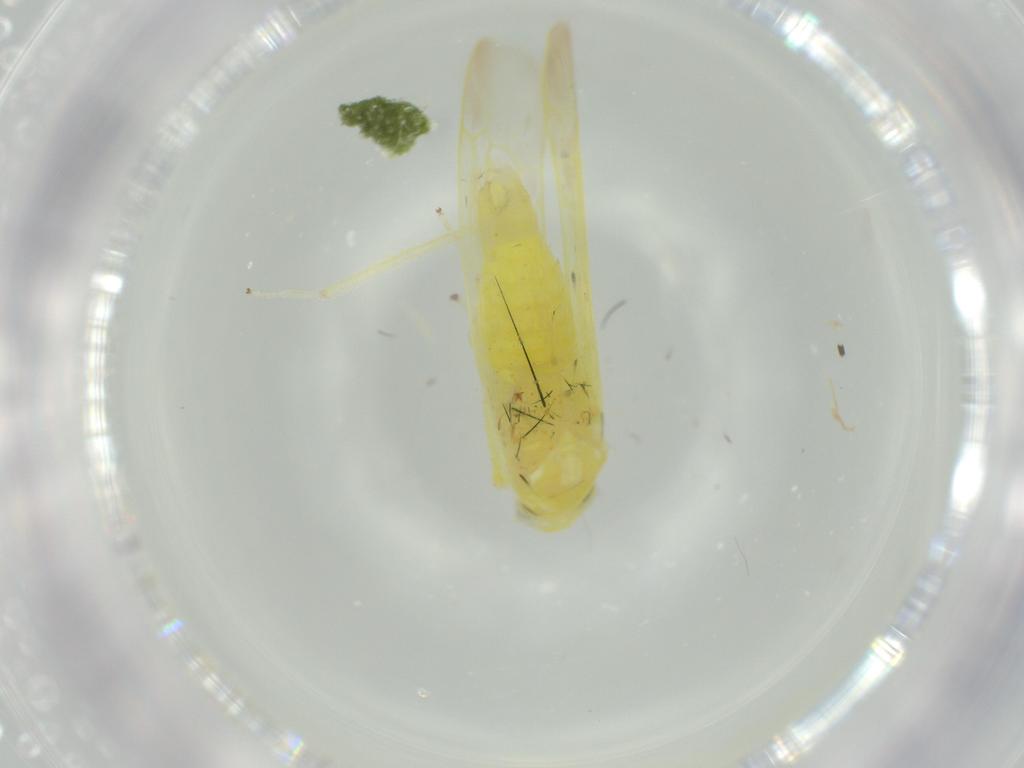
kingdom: Animalia
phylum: Arthropoda
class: Insecta
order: Hemiptera
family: Cicadellidae
